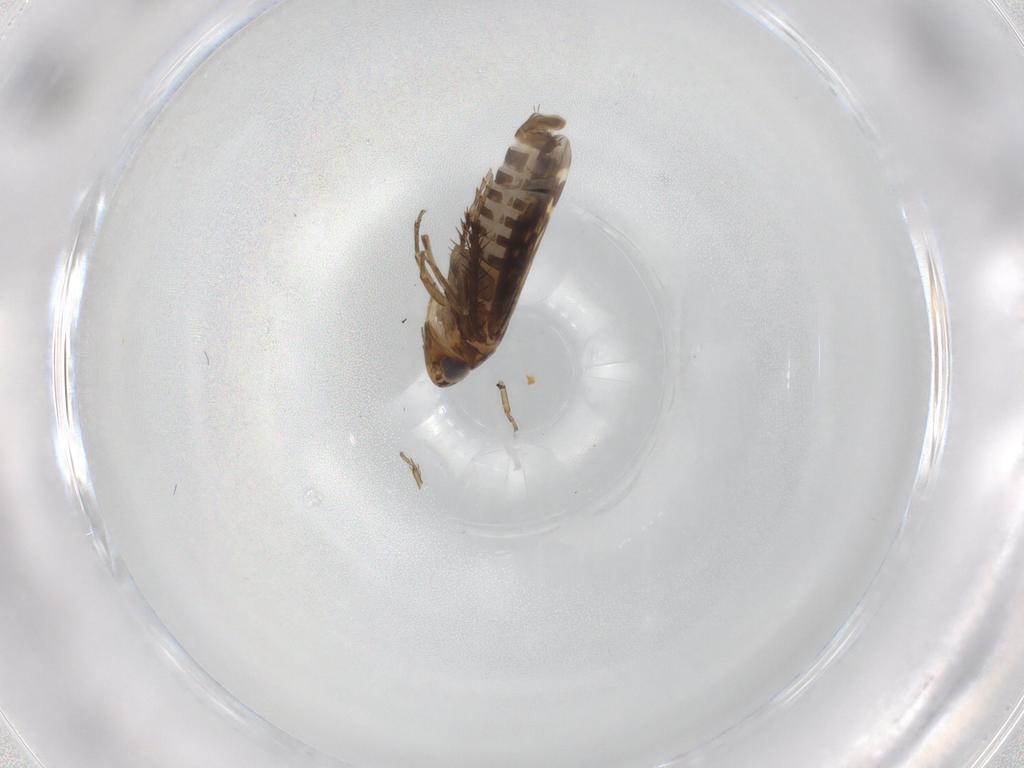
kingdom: Animalia
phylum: Arthropoda
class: Insecta
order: Hemiptera
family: Cicadellidae
